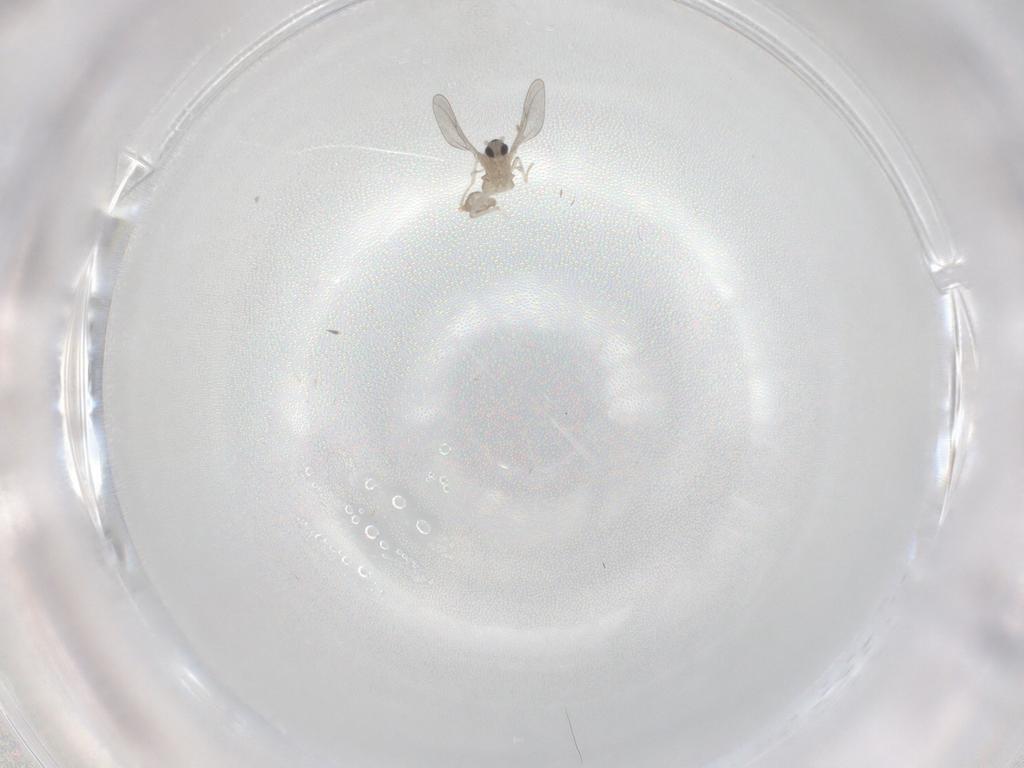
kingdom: Animalia
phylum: Arthropoda
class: Insecta
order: Diptera
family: Cecidomyiidae
